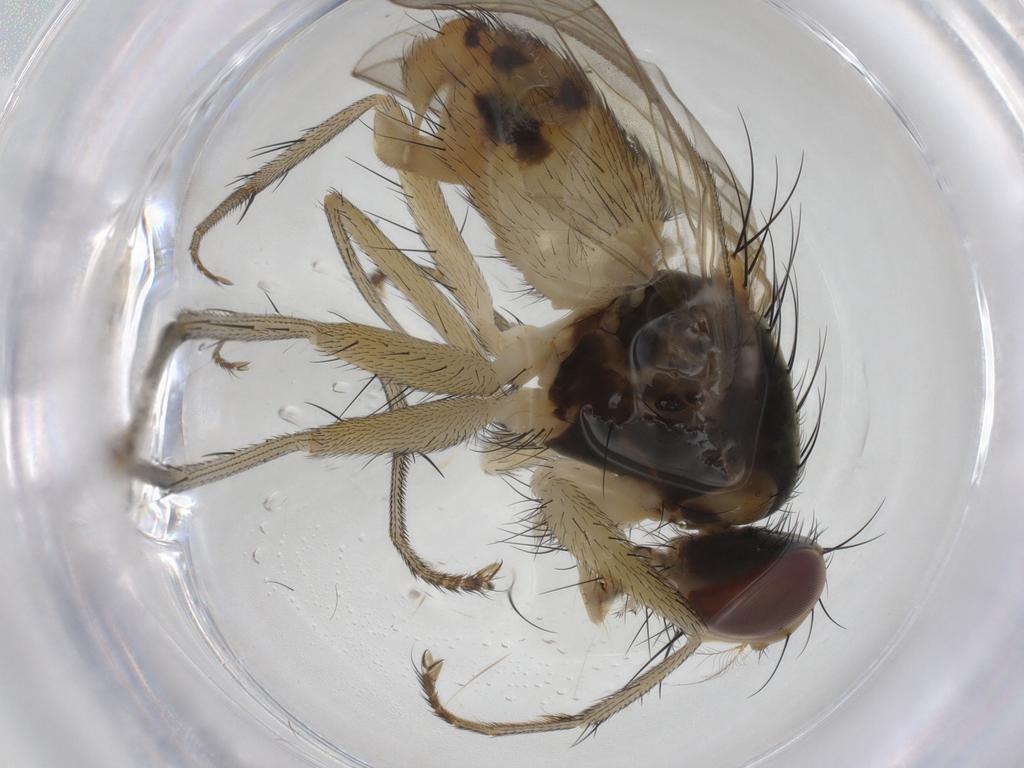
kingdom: Animalia
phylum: Arthropoda
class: Insecta
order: Diptera
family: Muscidae
